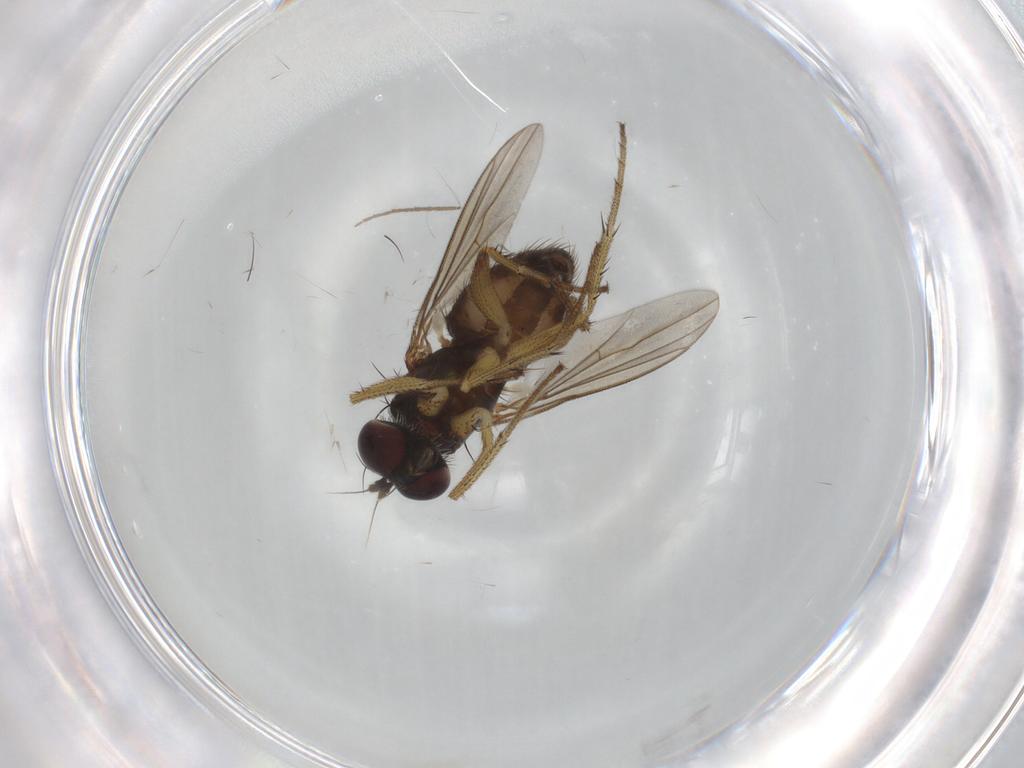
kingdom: Animalia
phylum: Arthropoda
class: Insecta
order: Diptera
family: Dolichopodidae
